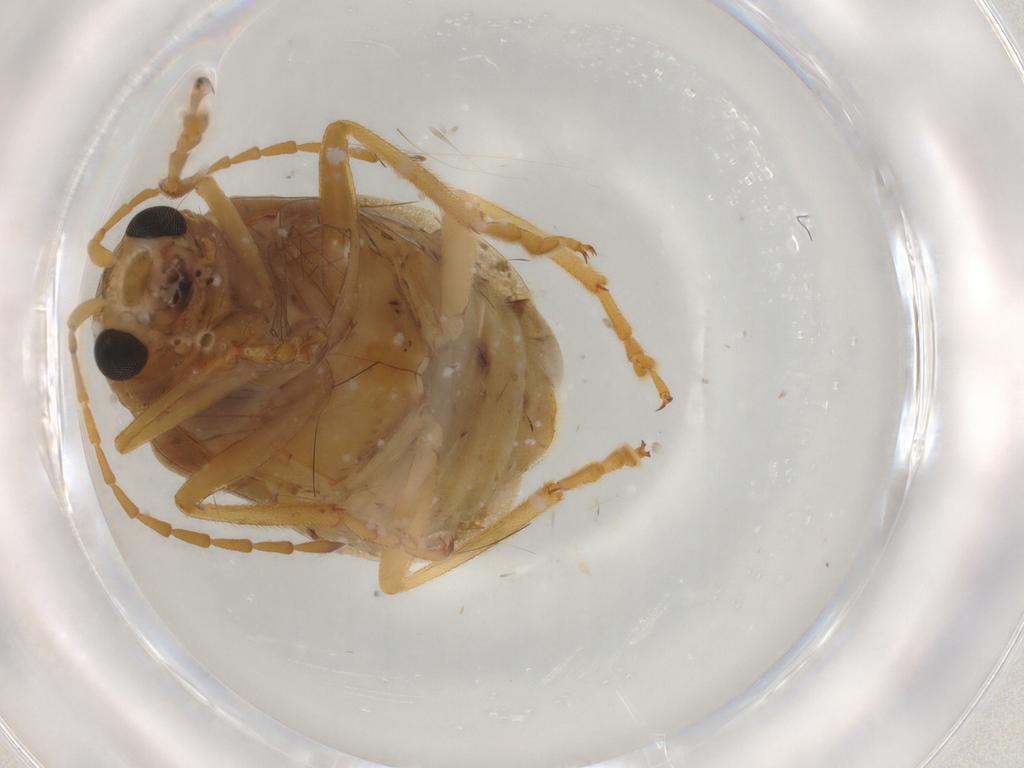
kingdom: Animalia
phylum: Arthropoda
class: Insecta
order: Coleoptera
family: Chrysomelidae
